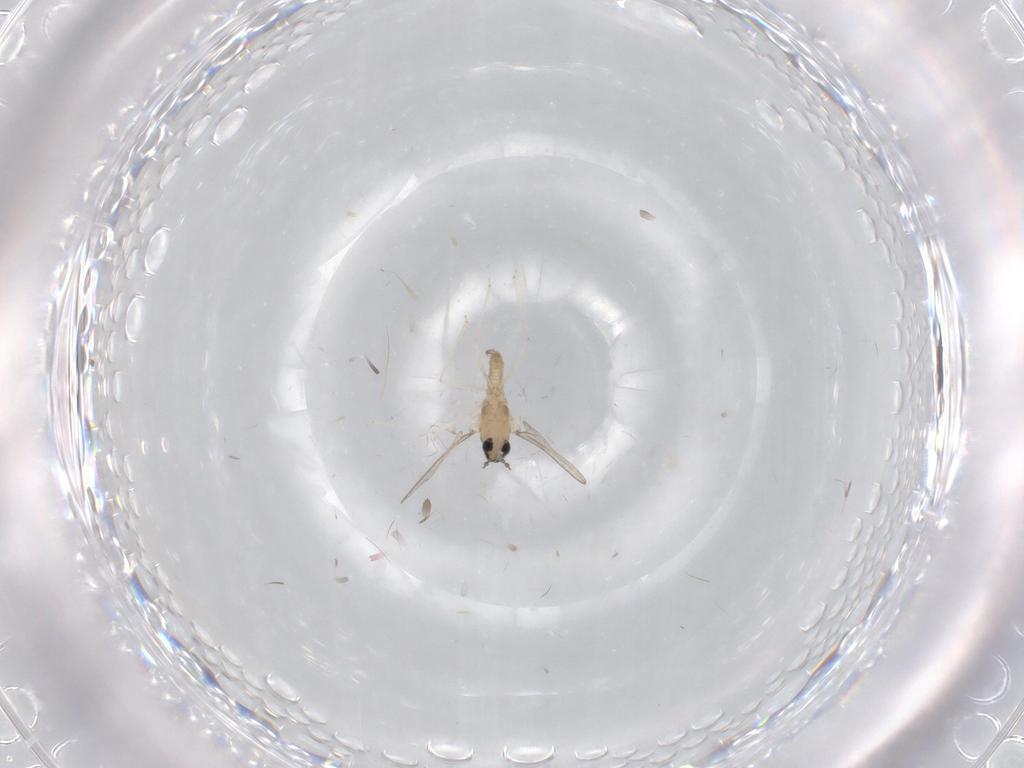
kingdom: Animalia
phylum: Arthropoda
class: Insecta
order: Diptera
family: Cecidomyiidae
